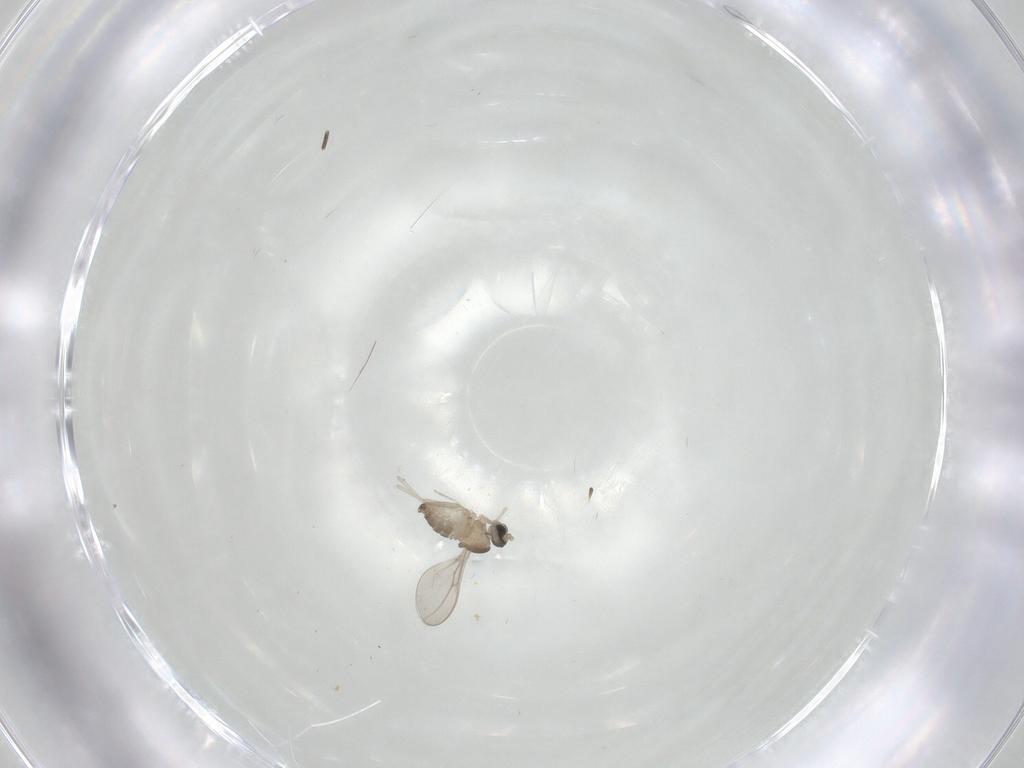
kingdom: Animalia
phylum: Arthropoda
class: Insecta
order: Diptera
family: Cecidomyiidae
